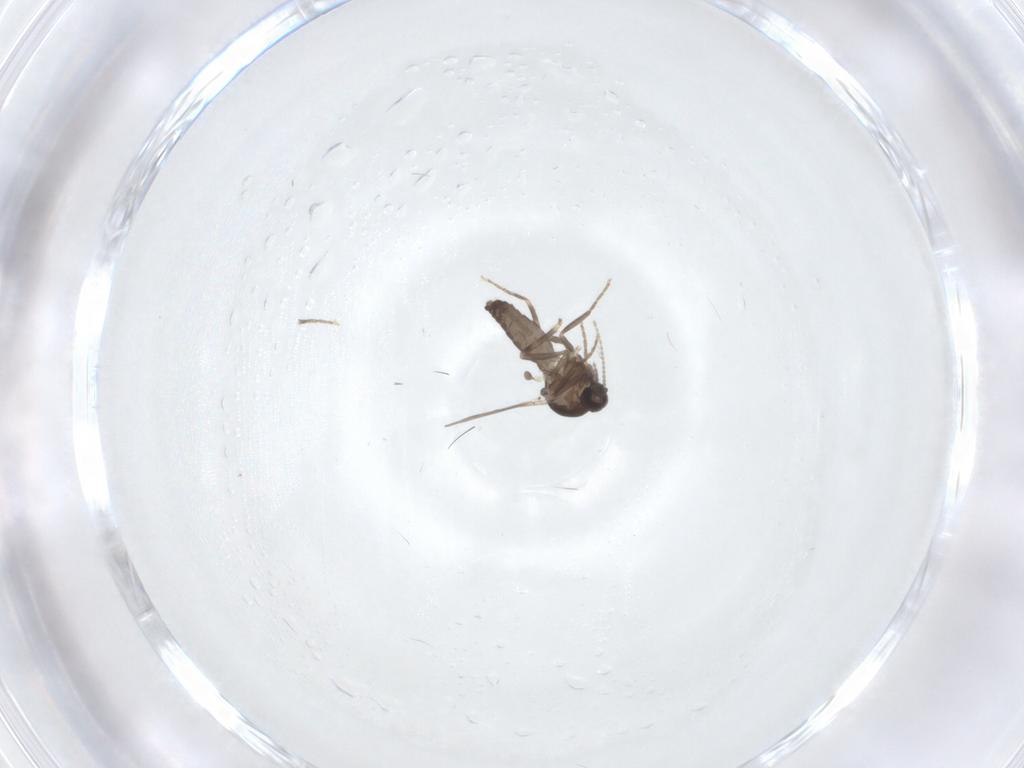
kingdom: Animalia
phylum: Arthropoda
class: Insecta
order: Diptera
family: Ceratopogonidae
